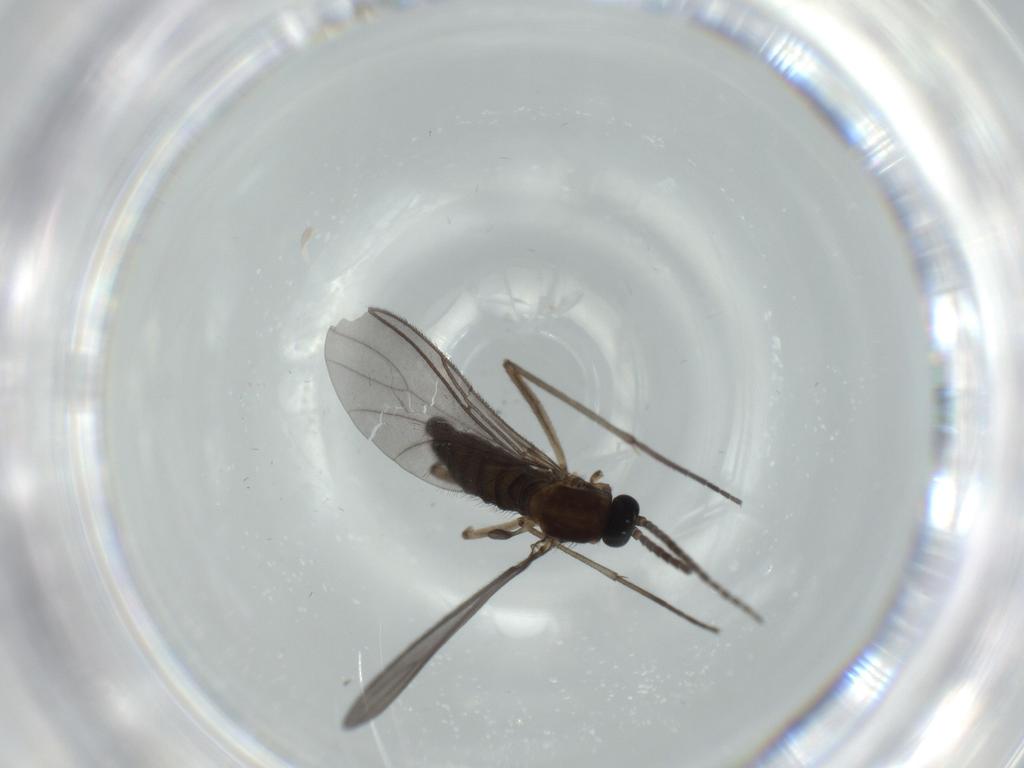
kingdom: Animalia
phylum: Arthropoda
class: Insecta
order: Diptera
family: Sciaridae
